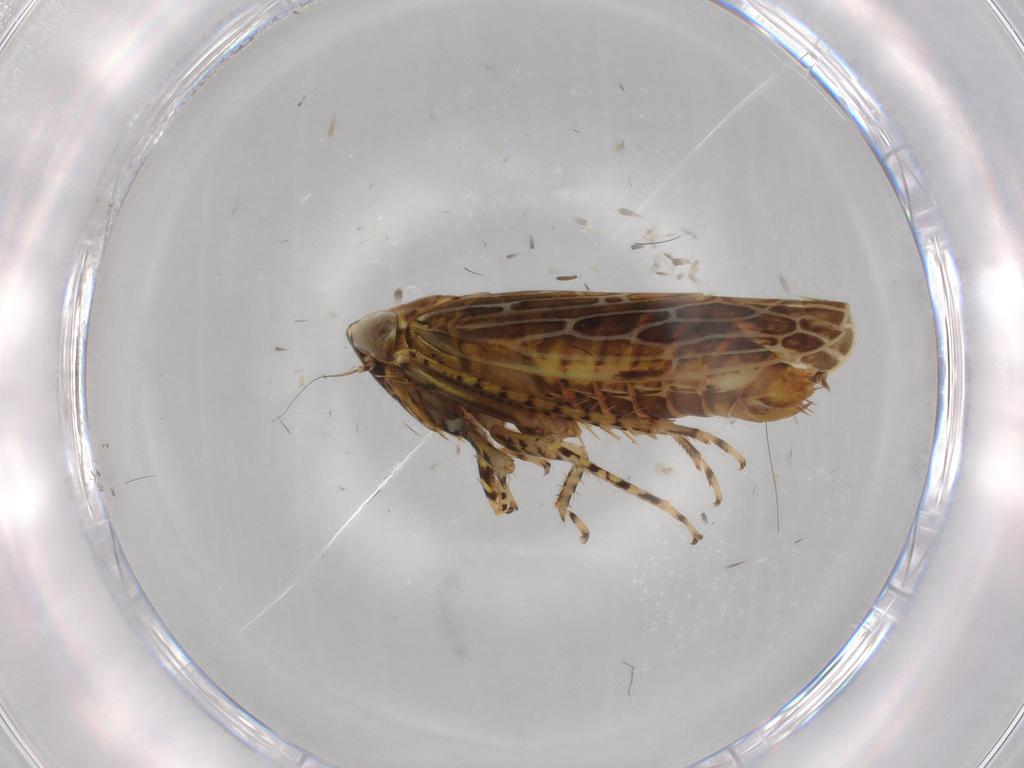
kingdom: Animalia
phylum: Arthropoda
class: Insecta
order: Hemiptera
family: Cicadellidae
